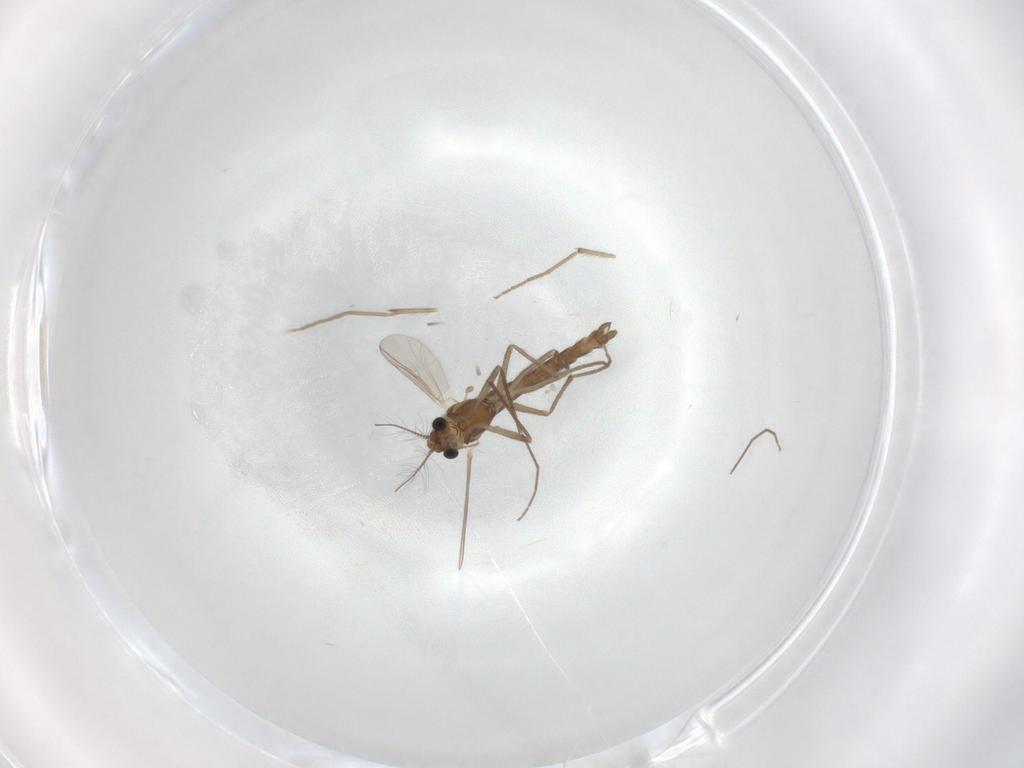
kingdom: Animalia
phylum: Arthropoda
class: Insecta
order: Diptera
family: Chironomidae
